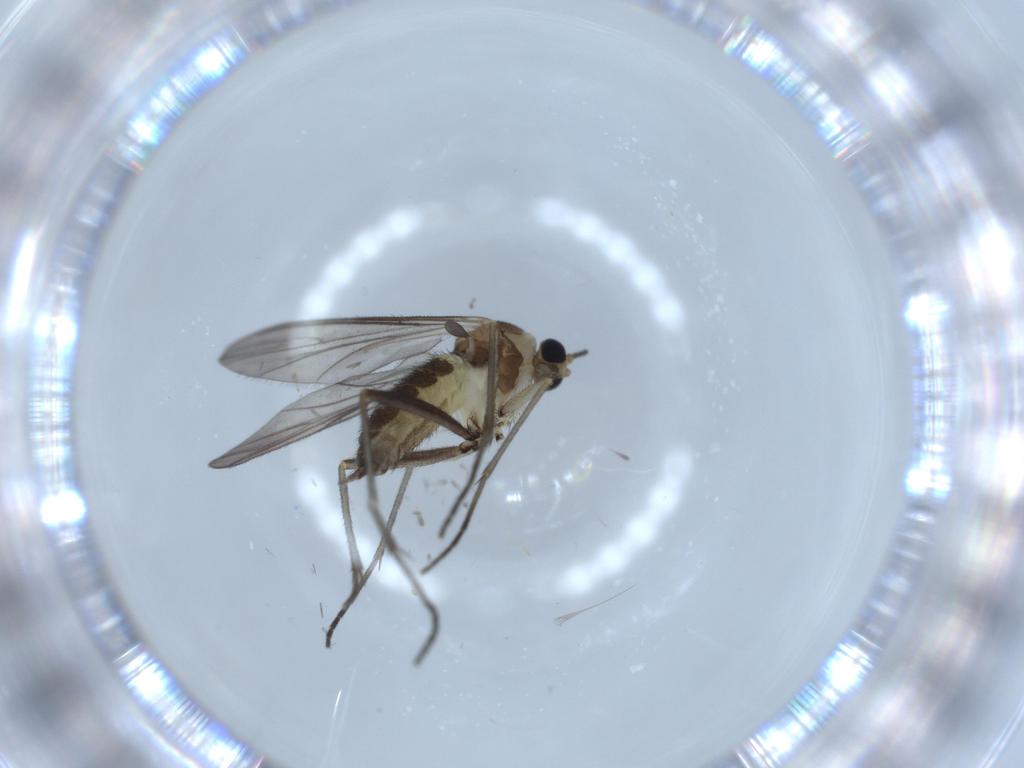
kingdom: Animalia
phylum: Arthropoda
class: Insecta
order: Diptera
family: Sciaridae
